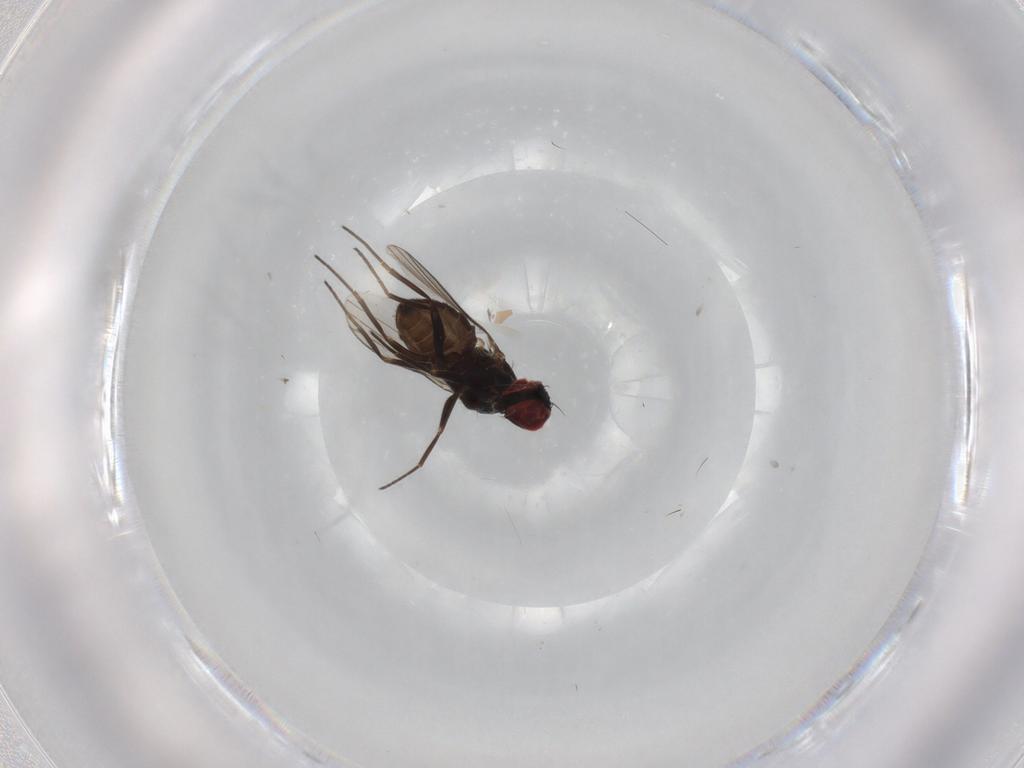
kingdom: Animalia
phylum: Arthropoda
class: Insecta
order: Diptera
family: Dolichopodidae
